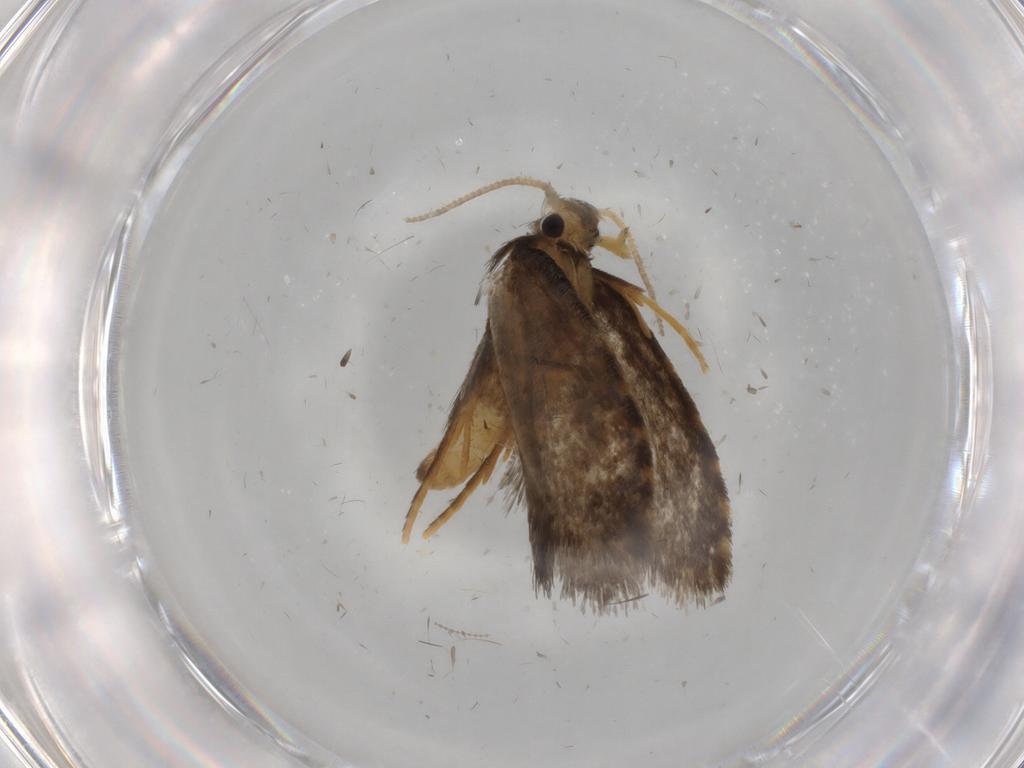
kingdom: Animalia
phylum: Arthropoda
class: Insecta
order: Lepidoptera
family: Psychidae
